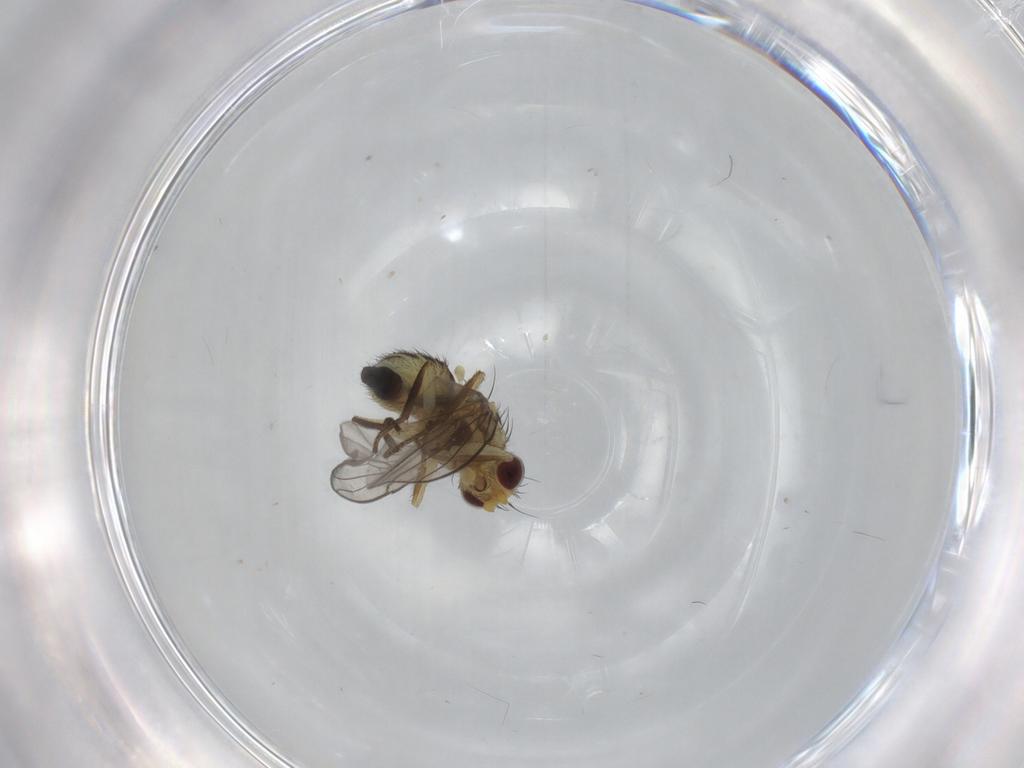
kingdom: Animalia
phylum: Arthropoda
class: Insecta
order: Diptera
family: Agromyzidae
